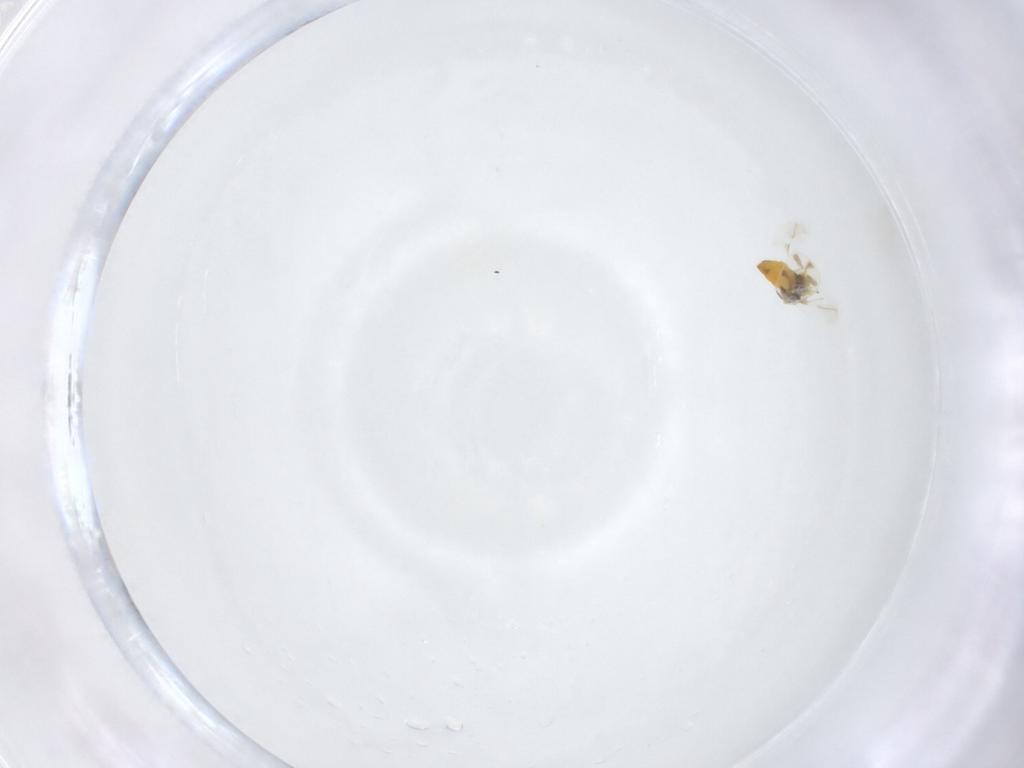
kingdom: Animalia
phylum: Arthropoda
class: Insecta
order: Hemiptera
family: Aleyrodidae
